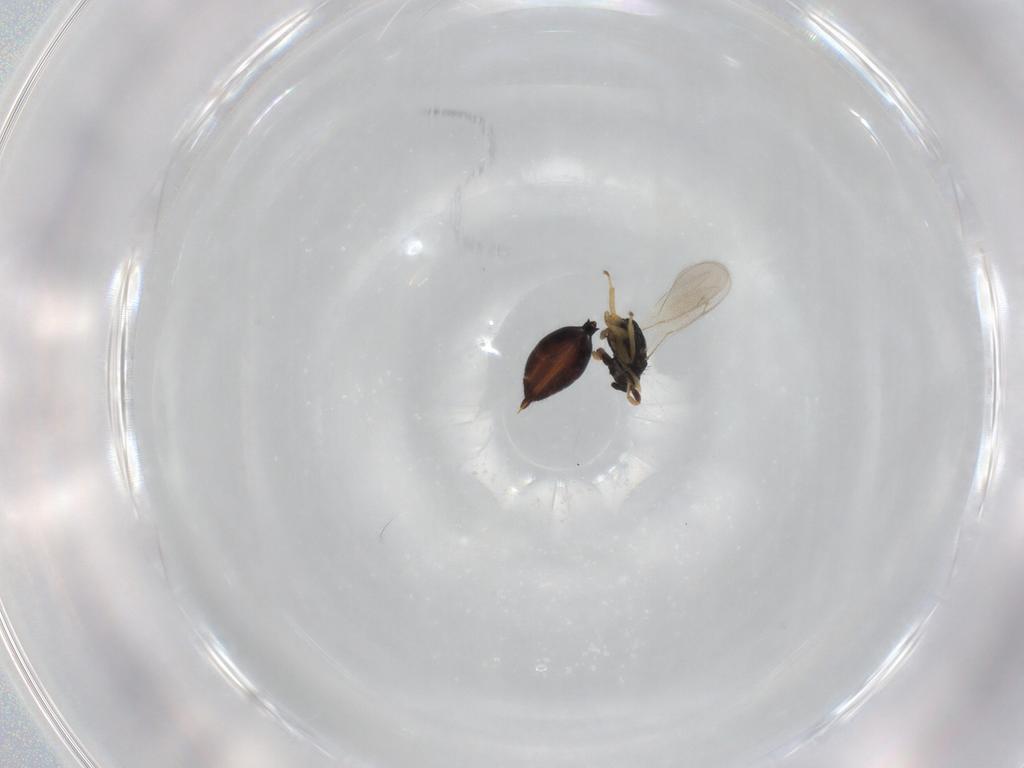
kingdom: Animalia
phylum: Arthropoda
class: Insecta
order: Hymenoptera
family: Eulophidae
